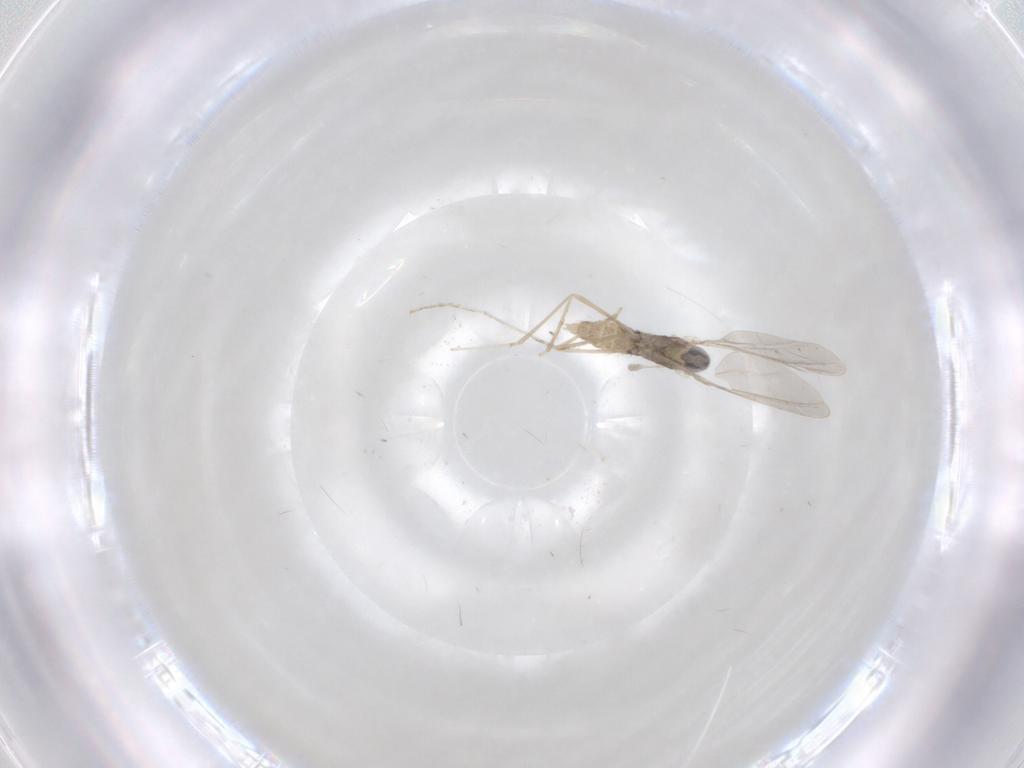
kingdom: Animalia
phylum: Arthropoda
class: Insecta
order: Diptera
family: Cecidomyiidae
